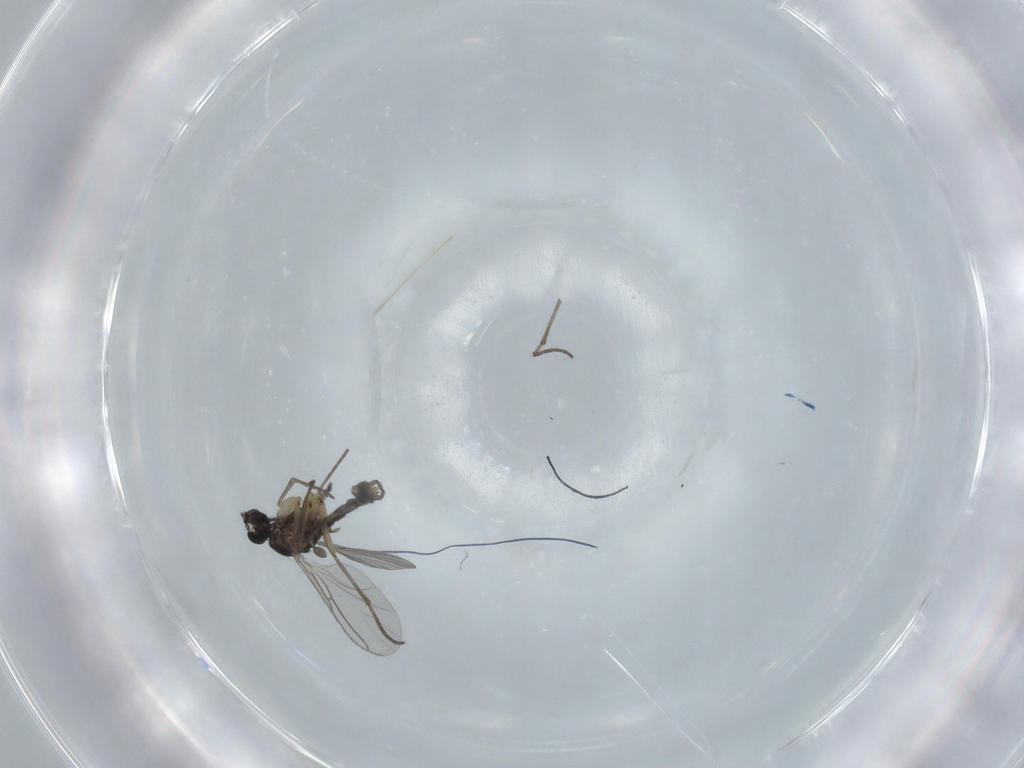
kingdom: Animalia
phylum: Arthropoda
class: Insecta
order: Diptera
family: Sciaridae
